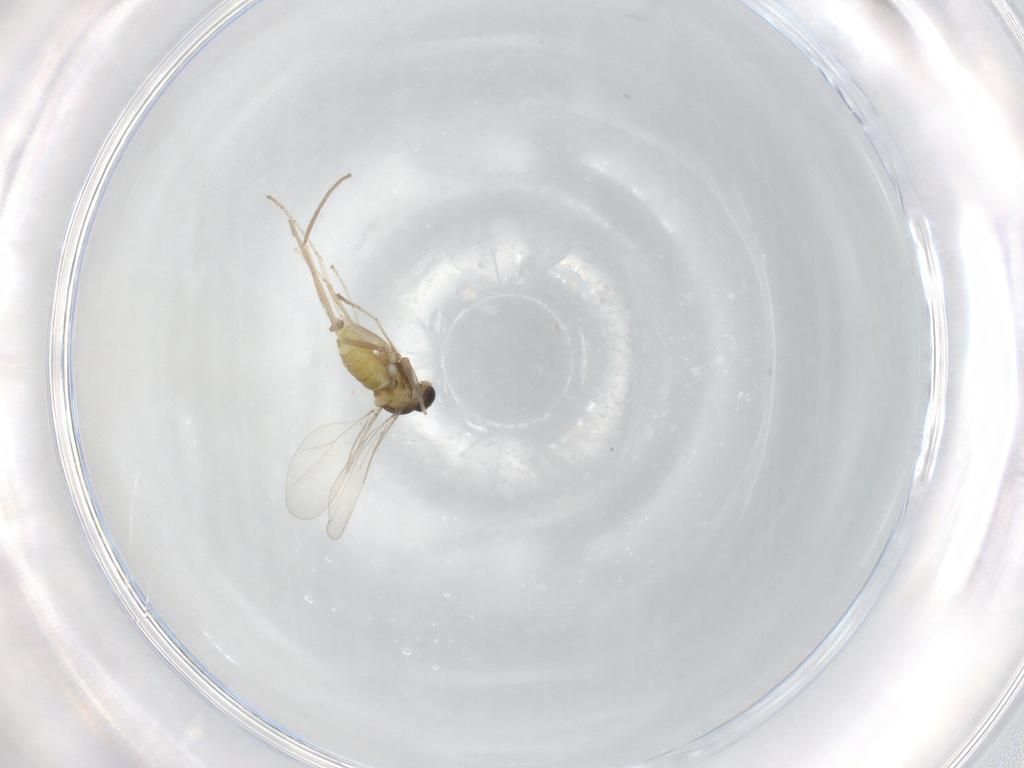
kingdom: Animalia
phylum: Arthropoda
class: Insecta
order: Diptera
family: Cecidomyiidae
